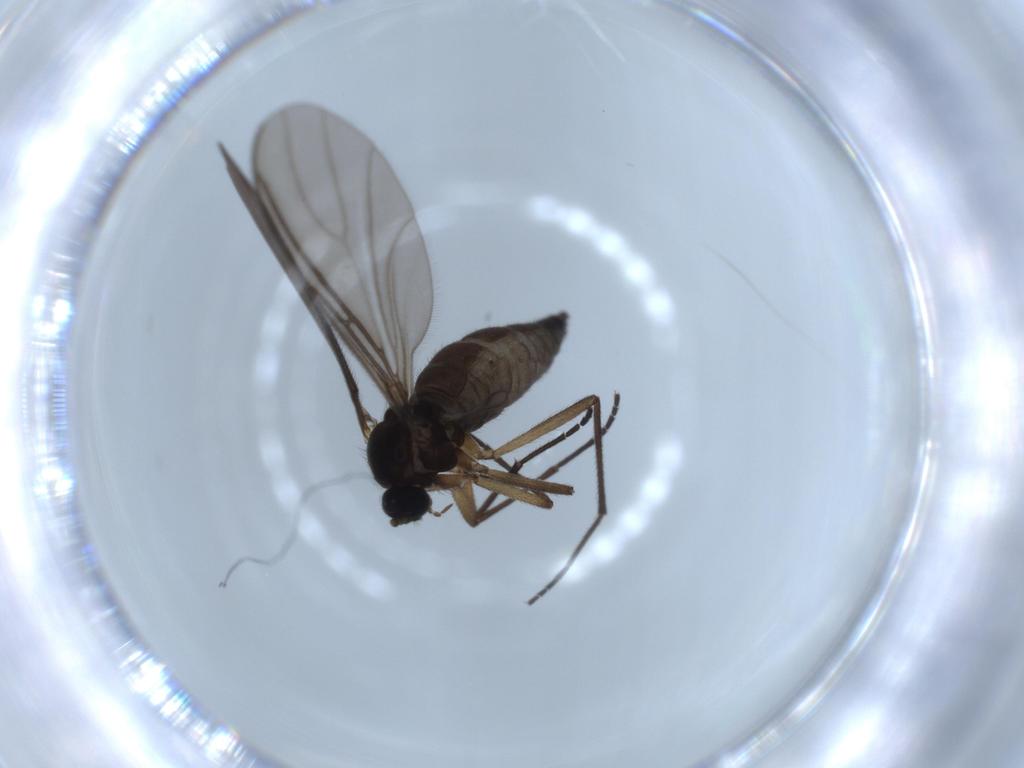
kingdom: Animalia
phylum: Arthropoda
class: Insecta
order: Diptera
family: Sciaridae
